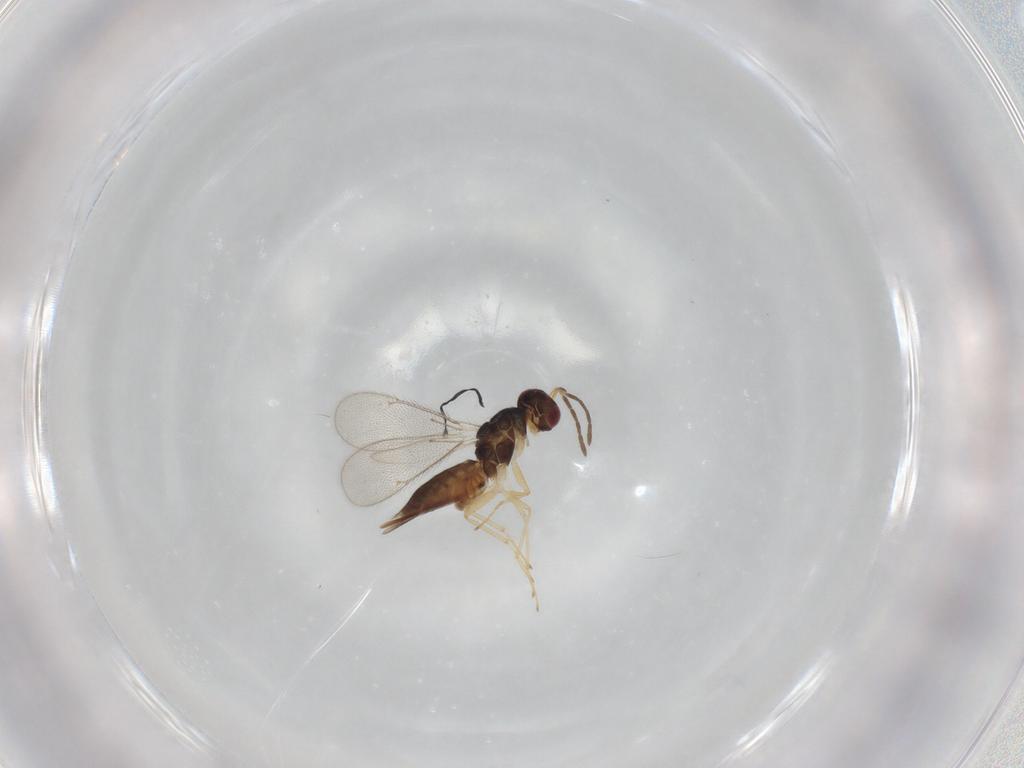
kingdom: Animalia
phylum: Arthropoda
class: Insecta
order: Hymenoptera
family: Eulophidae
